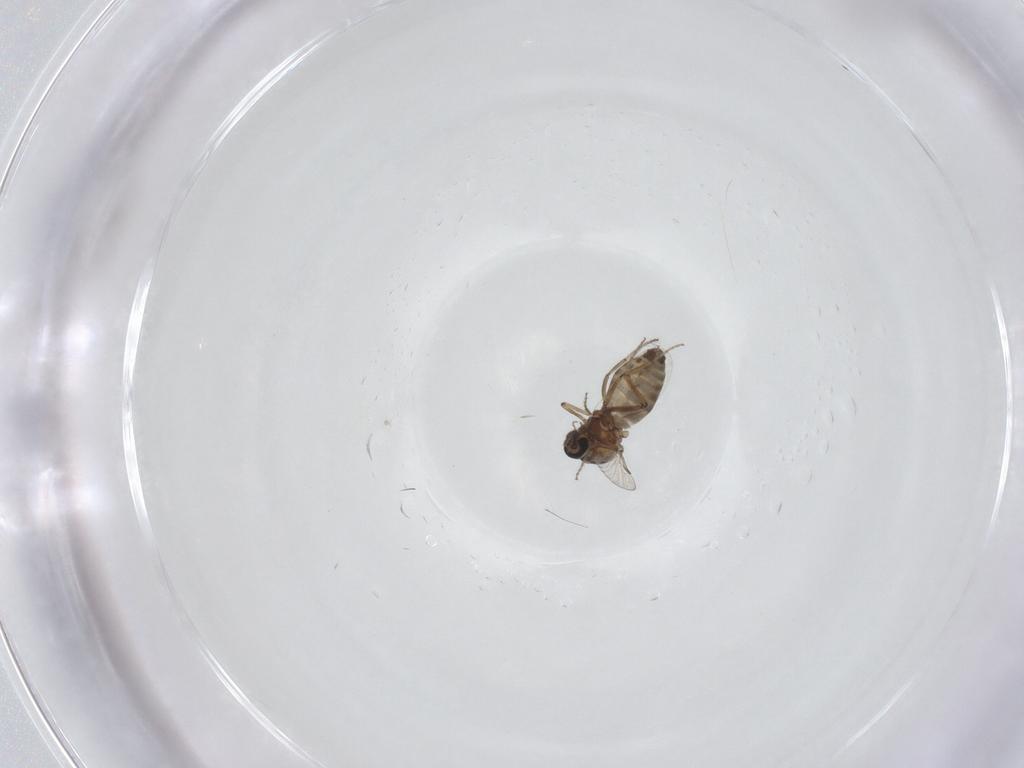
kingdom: Animalia
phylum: Arthropoda
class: Insecta
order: Diptera
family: Ceratopogonidae
